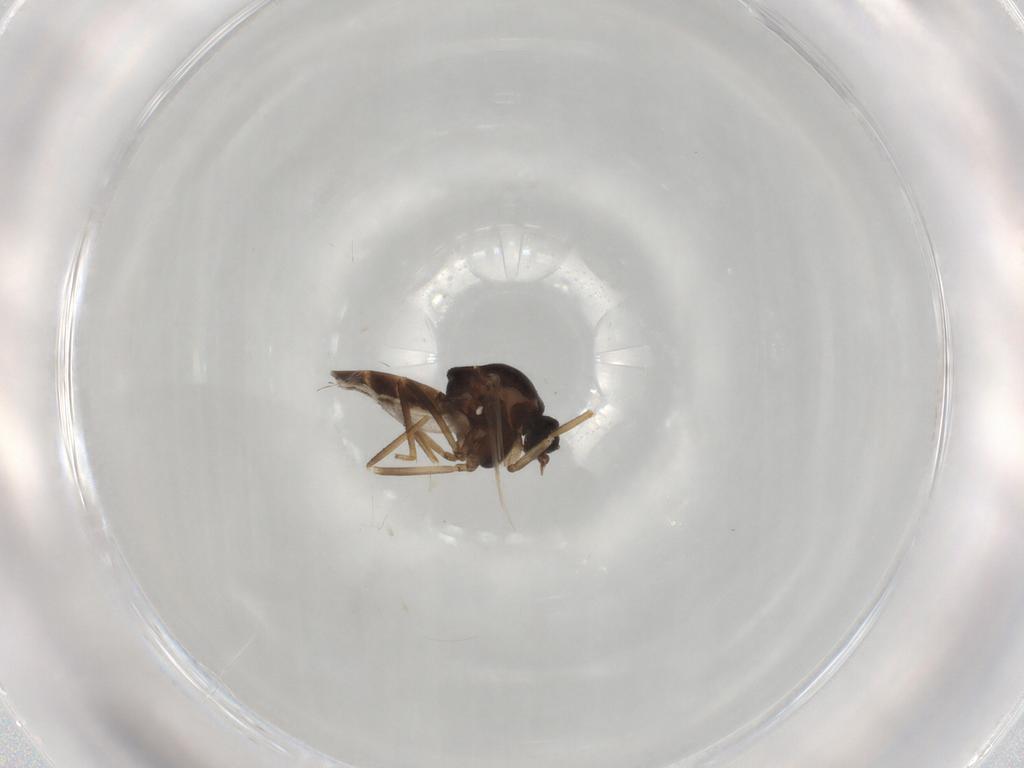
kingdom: Animalia
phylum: Arthropoda
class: Insecta
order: Diptera
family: Ceratopogonidae
